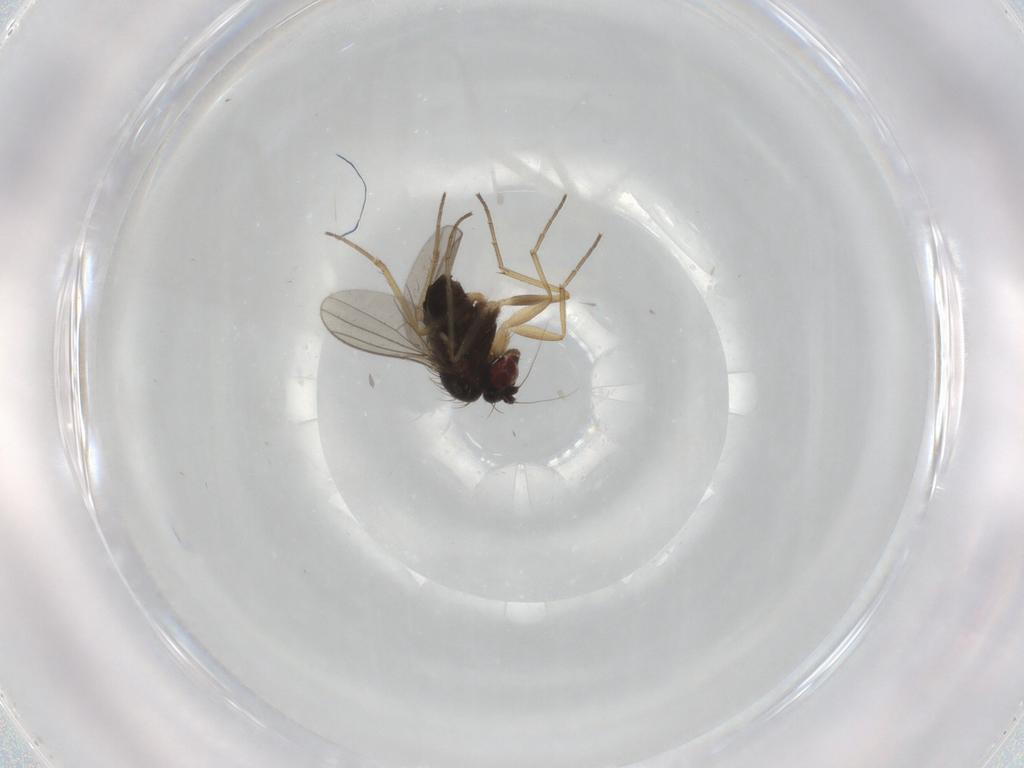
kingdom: Animalia
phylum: Arthropoda
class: Insecta
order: Diptera
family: Dolichopodidae
